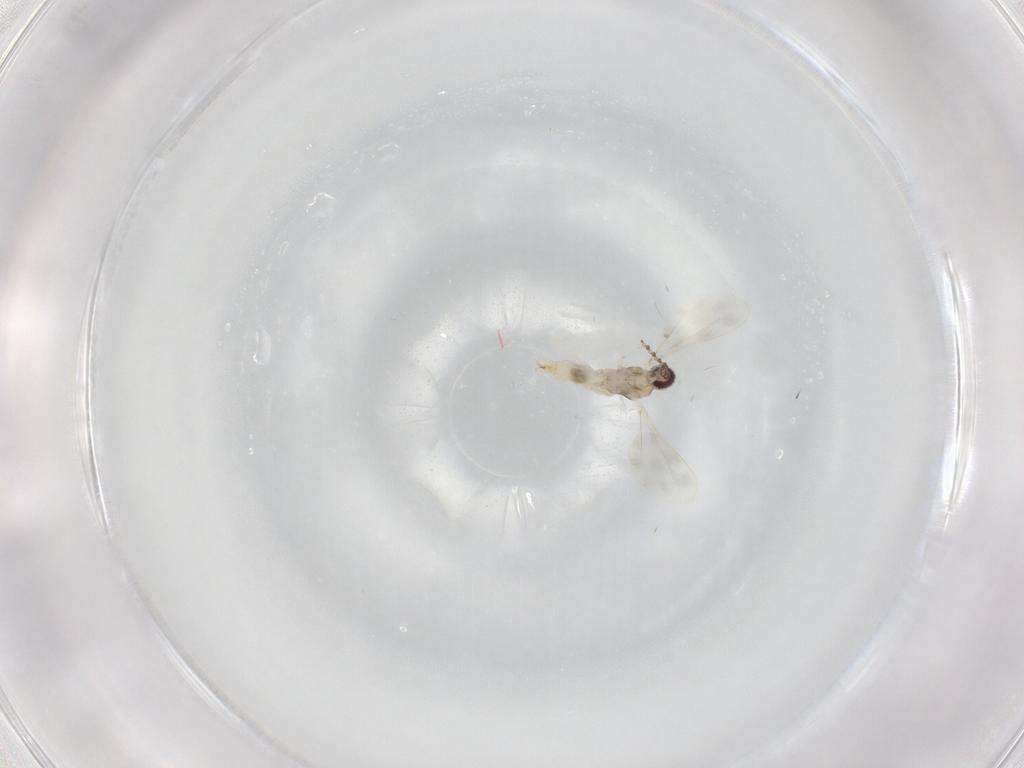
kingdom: Animalia
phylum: Arthropoda
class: Insecta
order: Diptera
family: Cecidomyiidae
